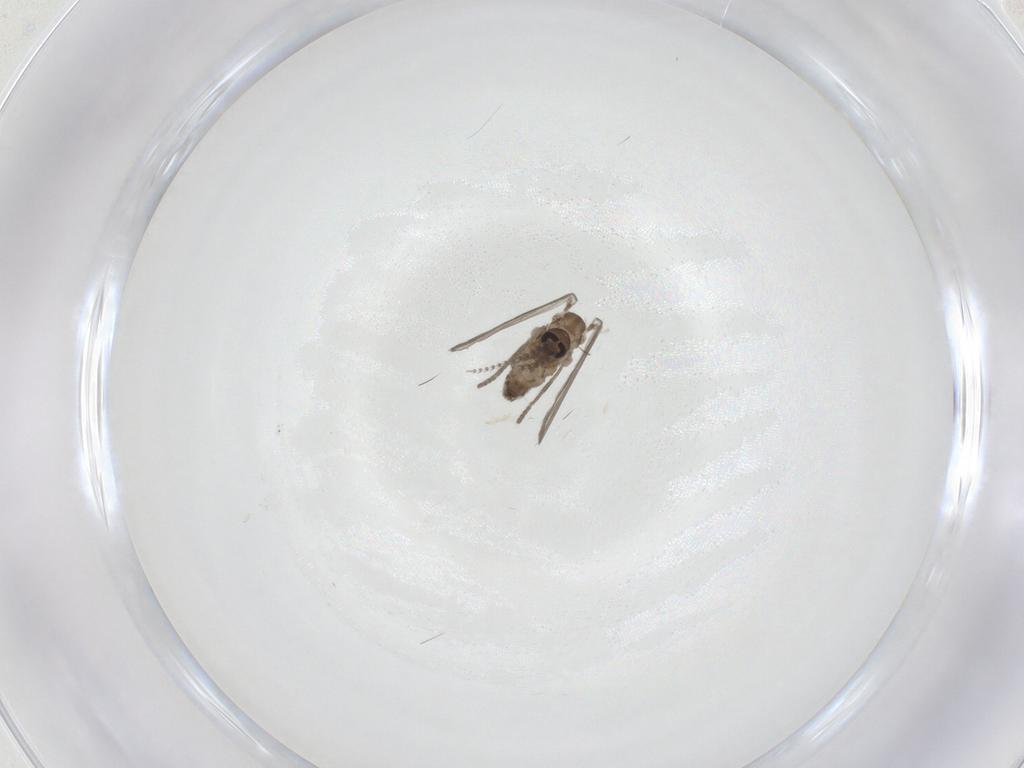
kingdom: Animalia
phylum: Arthropoda
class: Insecta
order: Diptera
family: Psychodidae
